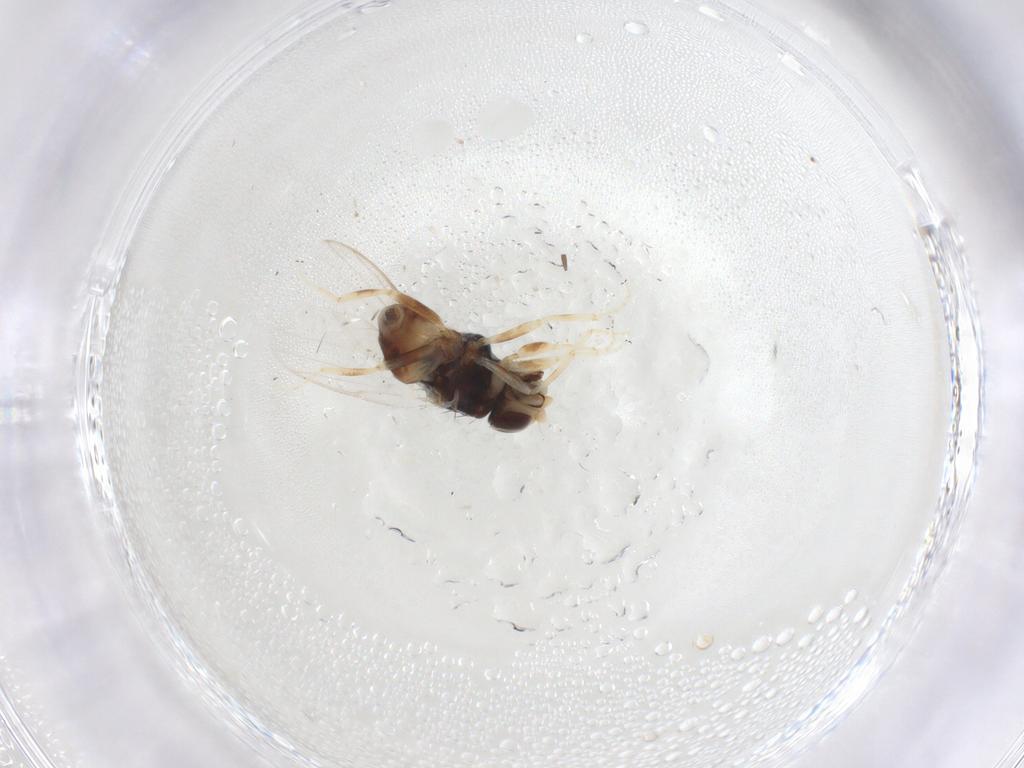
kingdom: Animalia
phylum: Arthropoda
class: Insecta
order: Diptera
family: Chloropidae
